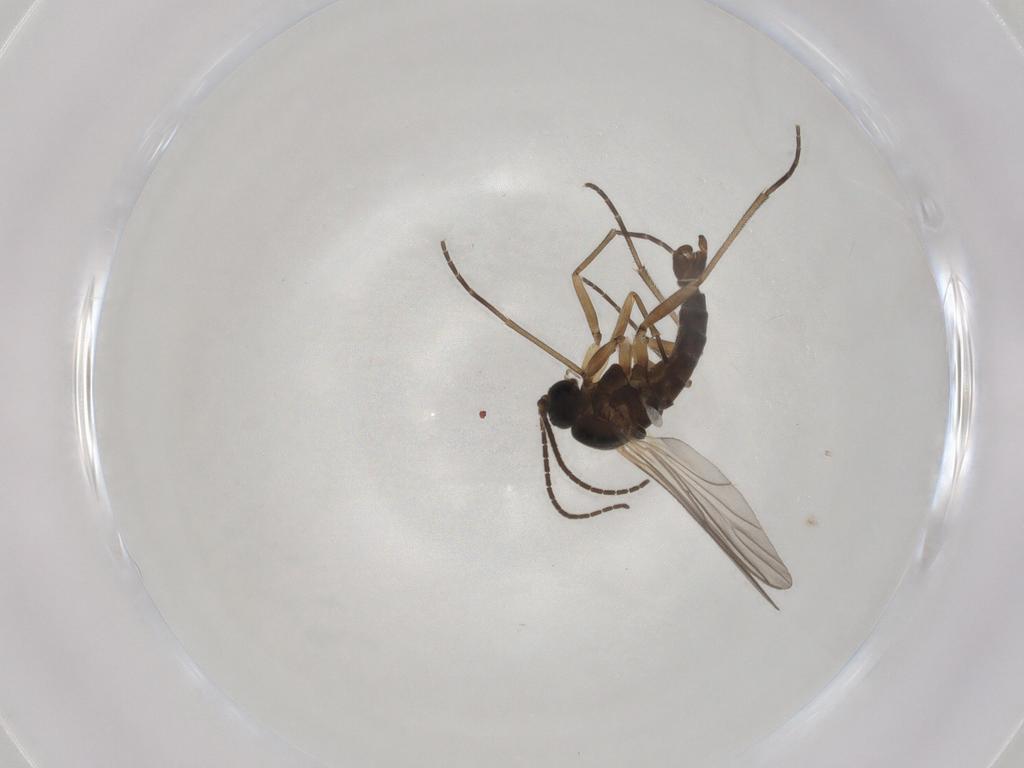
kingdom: Animalia
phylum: Arthropoda
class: Insecta
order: Diptera
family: Sciaridae
